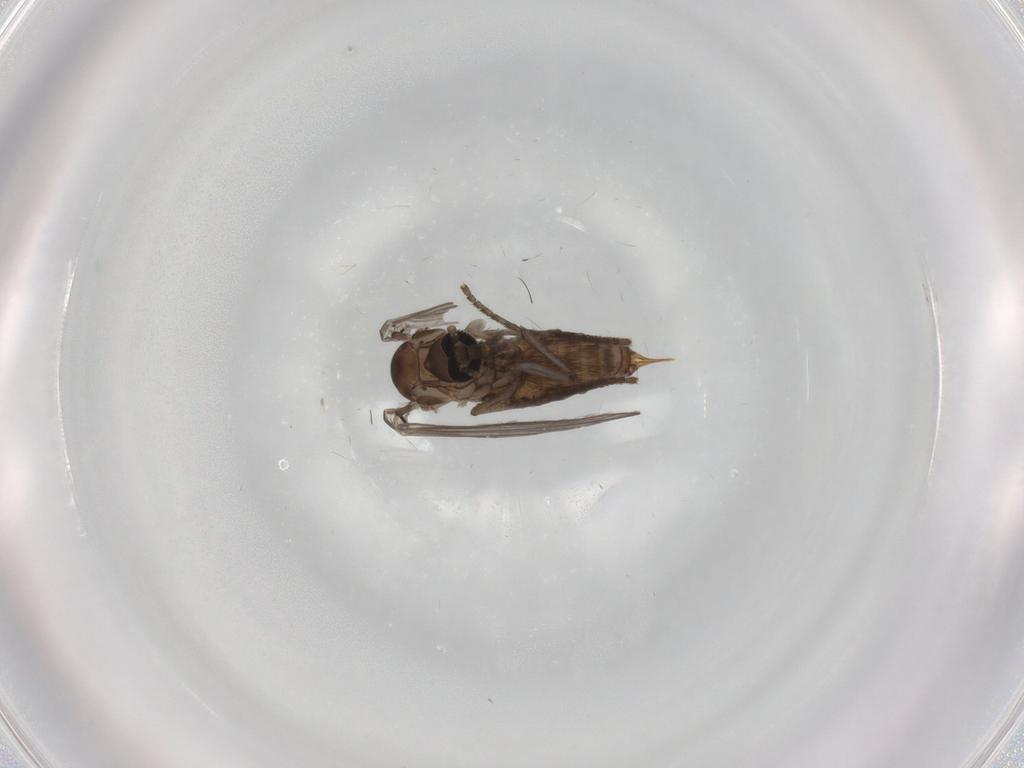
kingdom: Animalia
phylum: Arthropoda
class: Insecta
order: Diptera
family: Psychodidae
